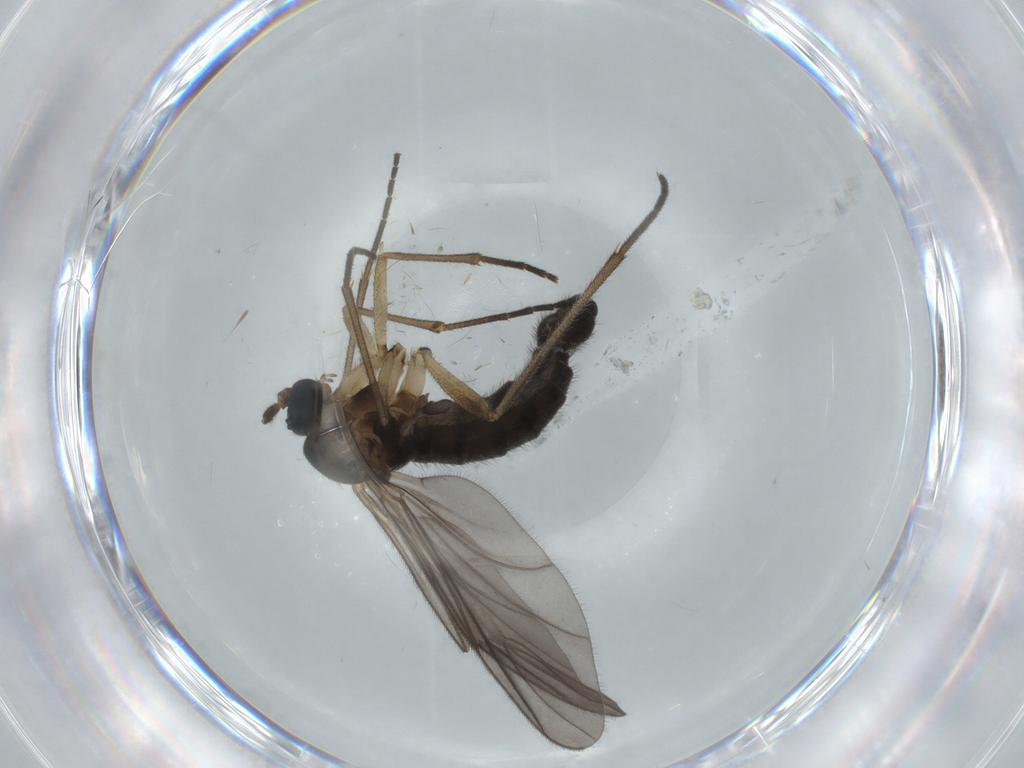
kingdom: Animalia
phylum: Arthropoda
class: Insecta
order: Diptera
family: Sciaridae
